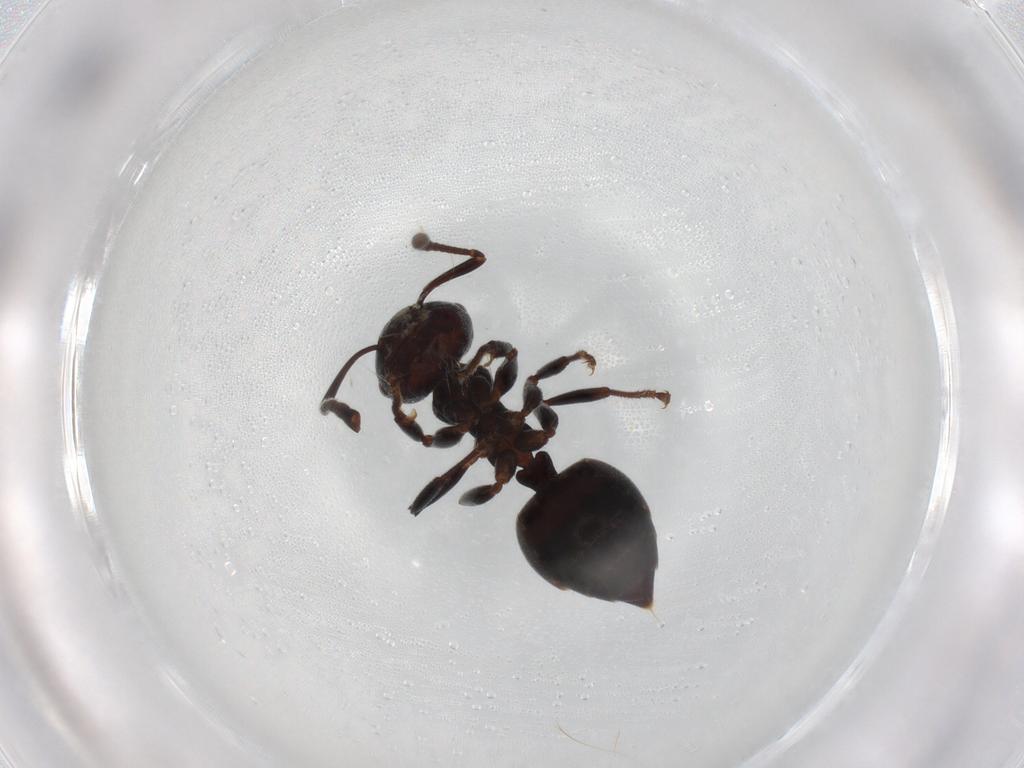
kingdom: Animalia
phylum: Arthropoda
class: Insecta
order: Hymenoptera
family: Formicidae
